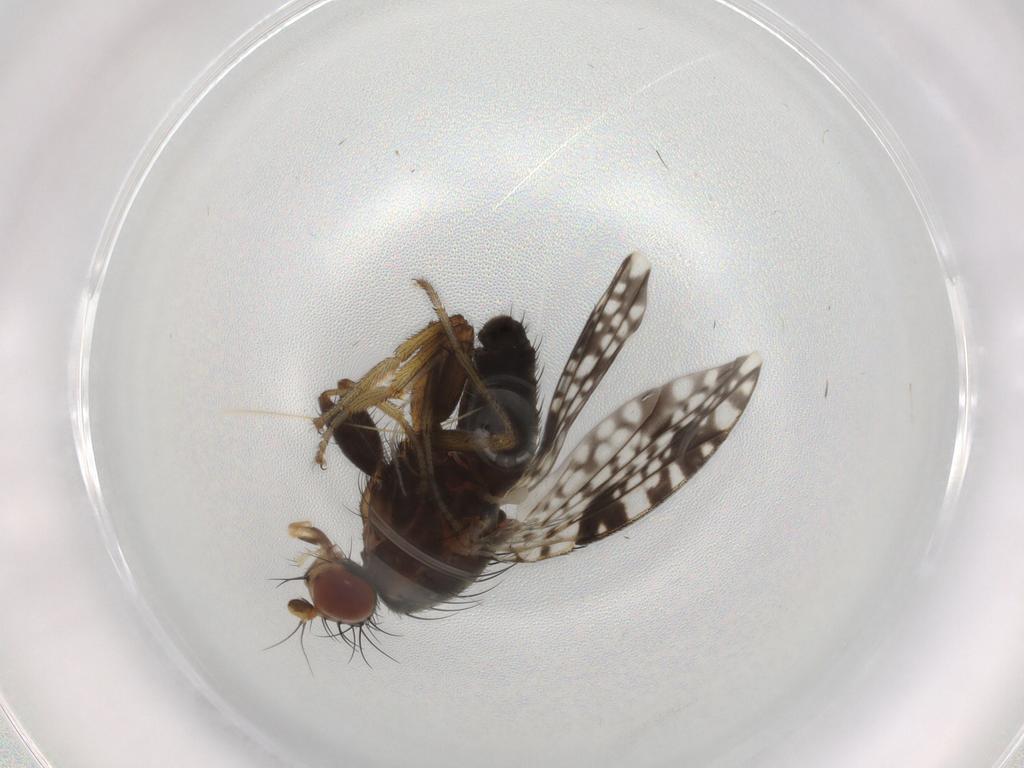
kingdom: Animalia
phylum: Arthropoda
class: Insecta
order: Diptera
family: Tephritidae
